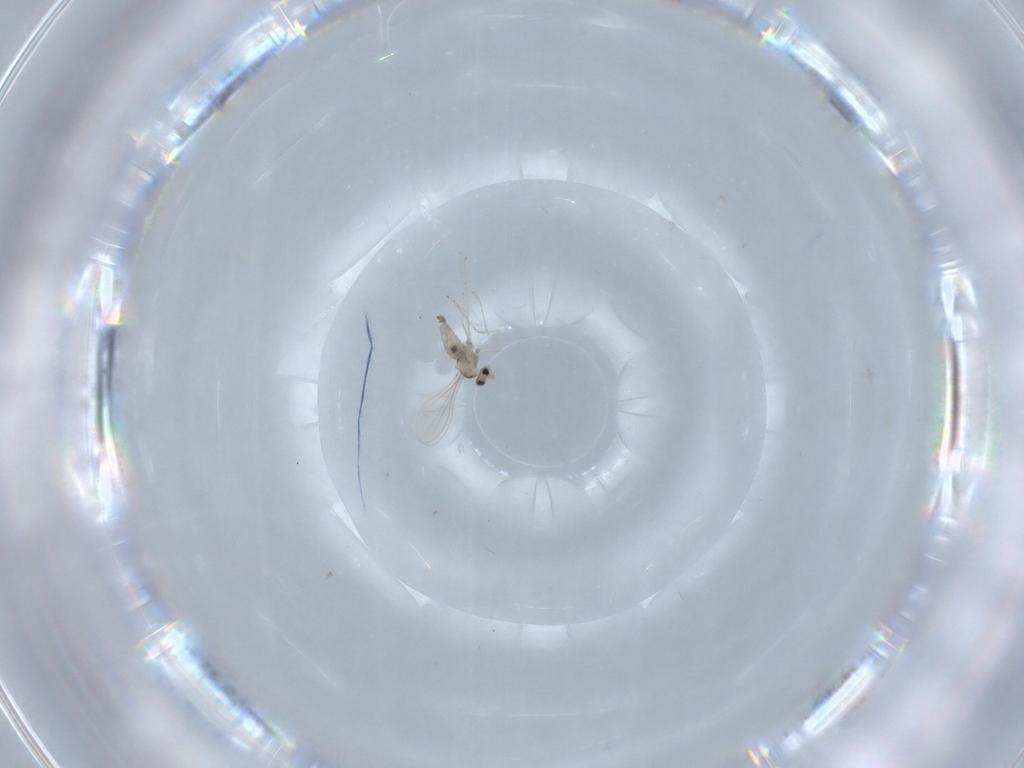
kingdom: Animalia
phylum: Arthropoda
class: Insecta
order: Diptera
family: Cecidomyiidae
